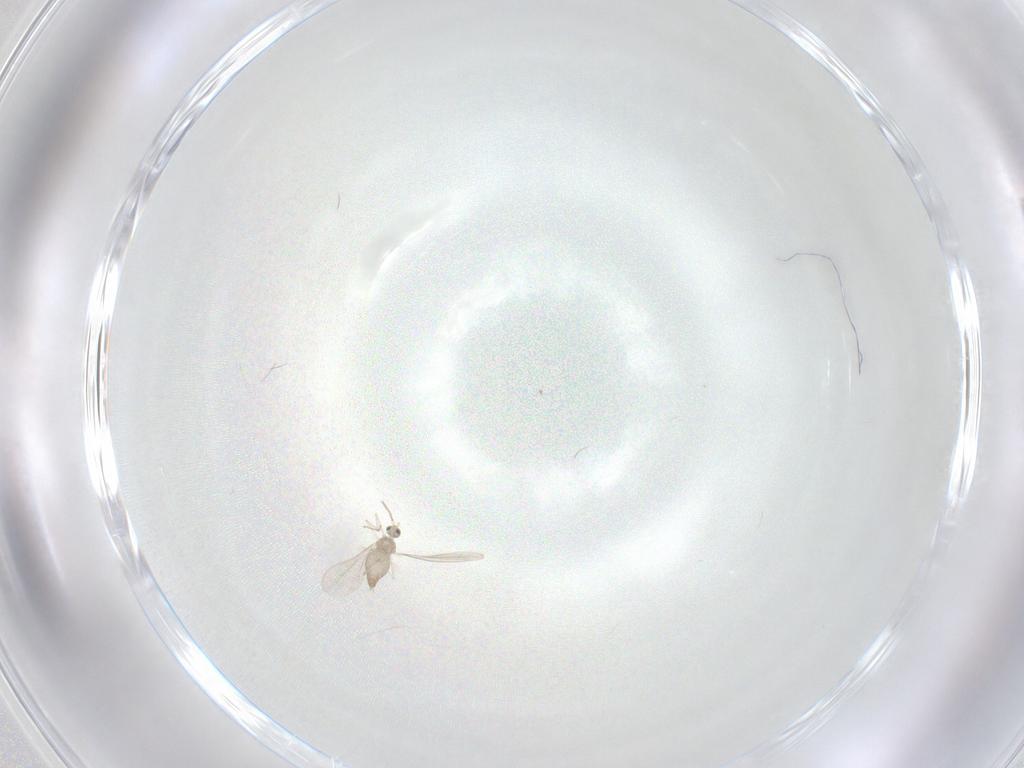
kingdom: Animalia
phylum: Arthropoda
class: Insecta
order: Diptera
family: Cecidomyiidae
